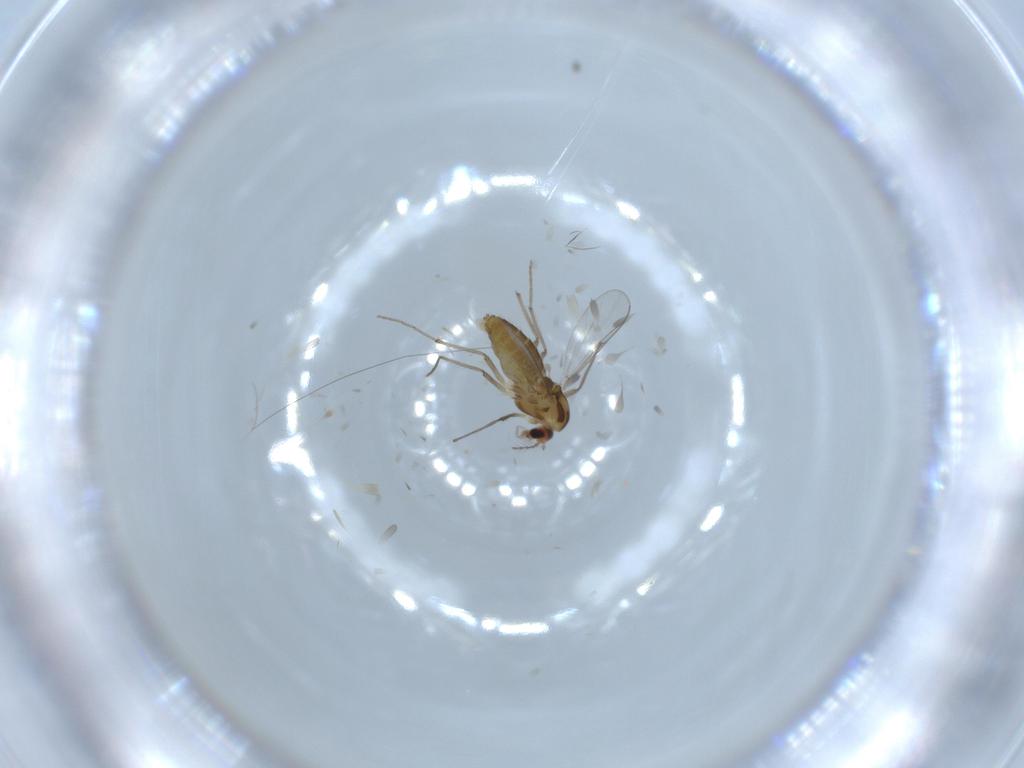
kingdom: Animalia
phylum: Arthropoda
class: Insecta
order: Diptera
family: Chironomidae
